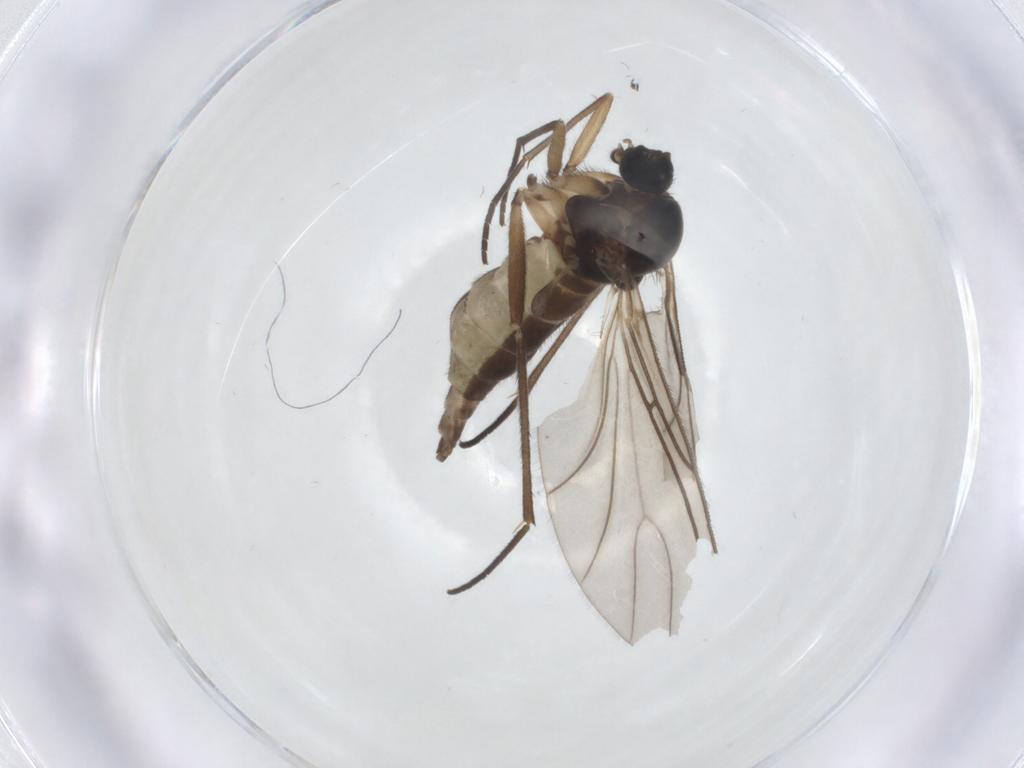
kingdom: Animalia
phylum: Arthropoda
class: Insecta
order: Diptera
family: Sciaridae
